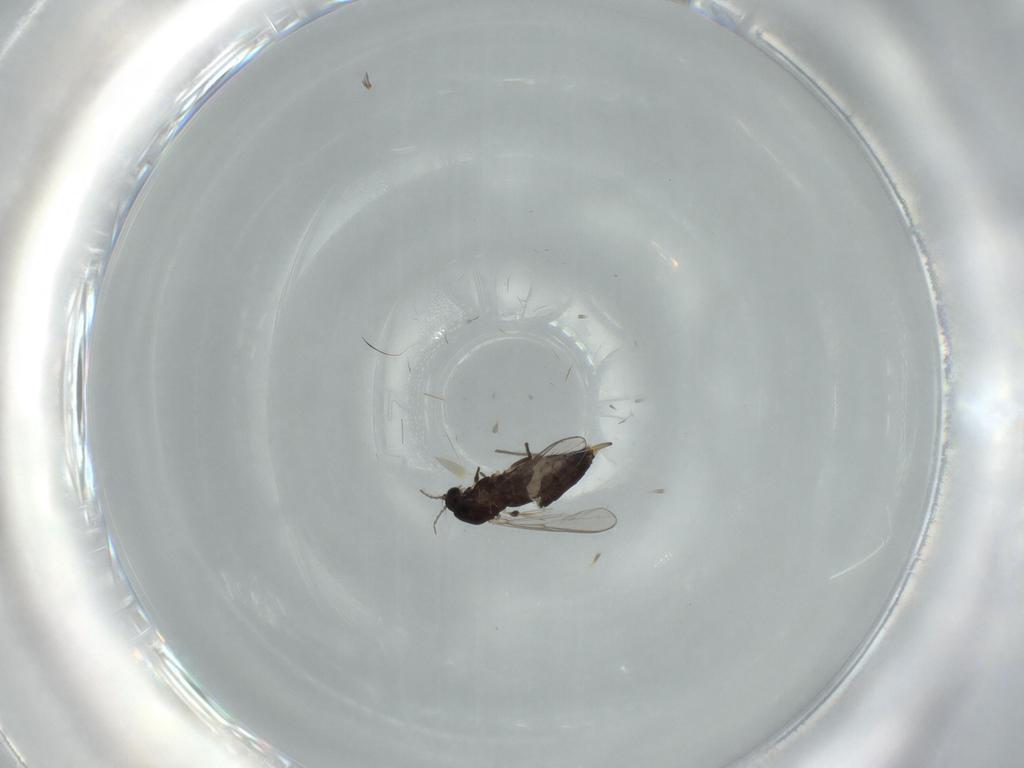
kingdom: Animalia
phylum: Arthropoda
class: Insecta
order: Diptera
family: Chironomidae
